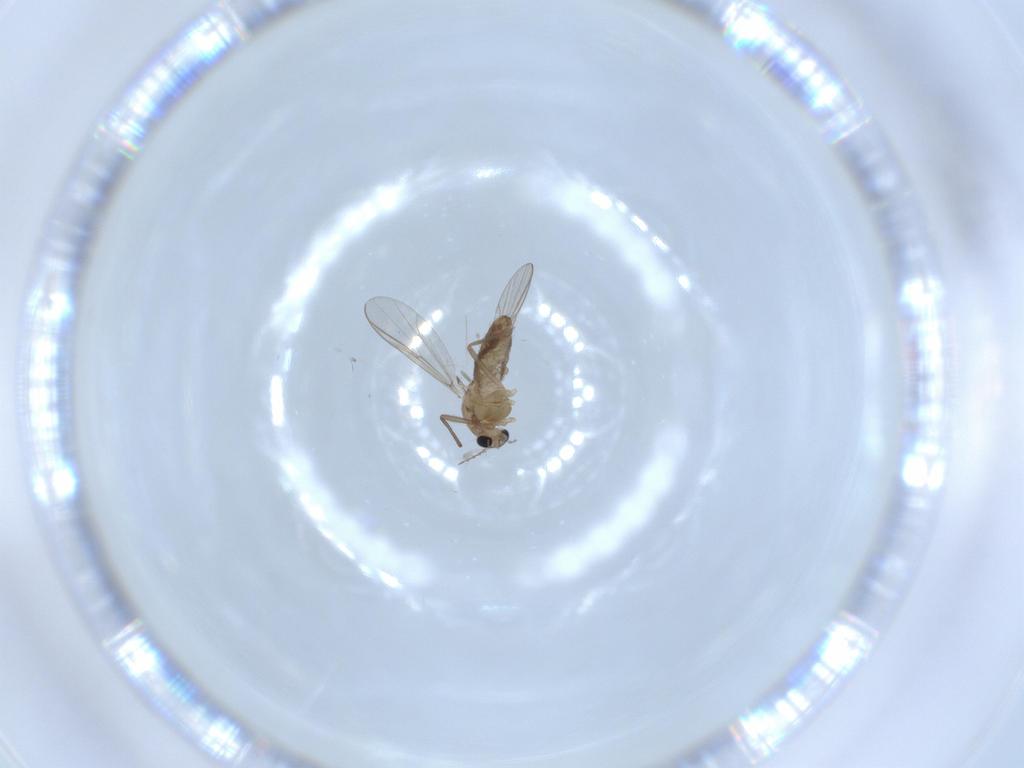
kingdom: Animalia
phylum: Arthropoda
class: Insecta
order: Diptera
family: Chironomidae
